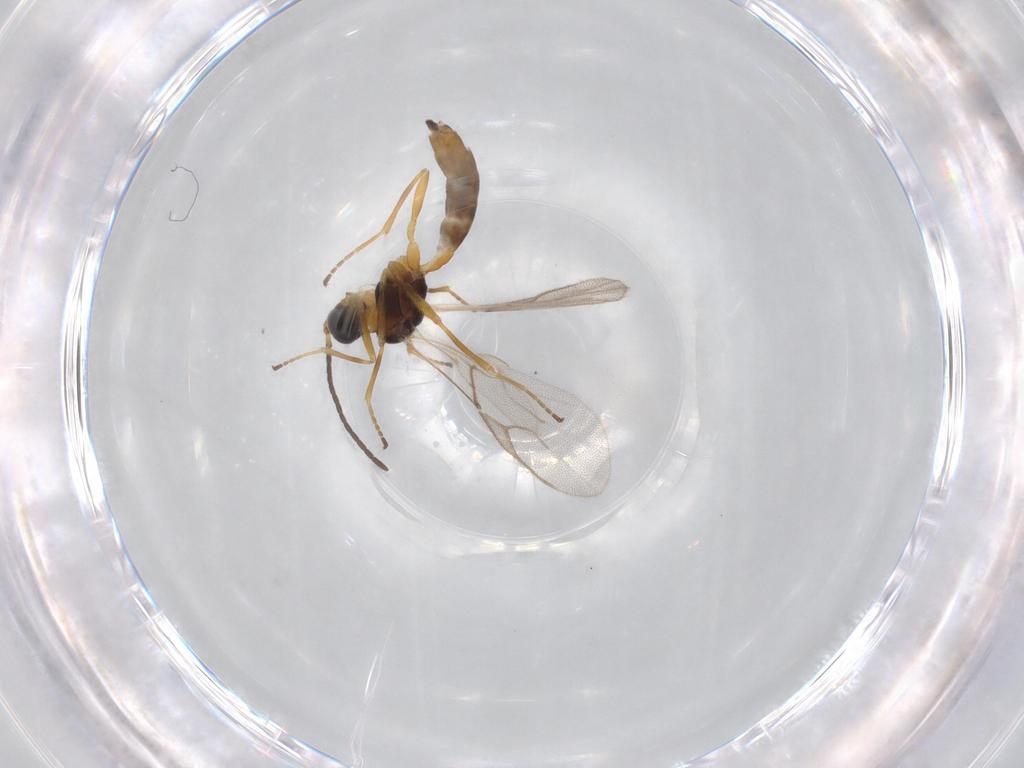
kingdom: Animalia
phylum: Arthropoda
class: Insecta
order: Hymenoptera
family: Braconidae
